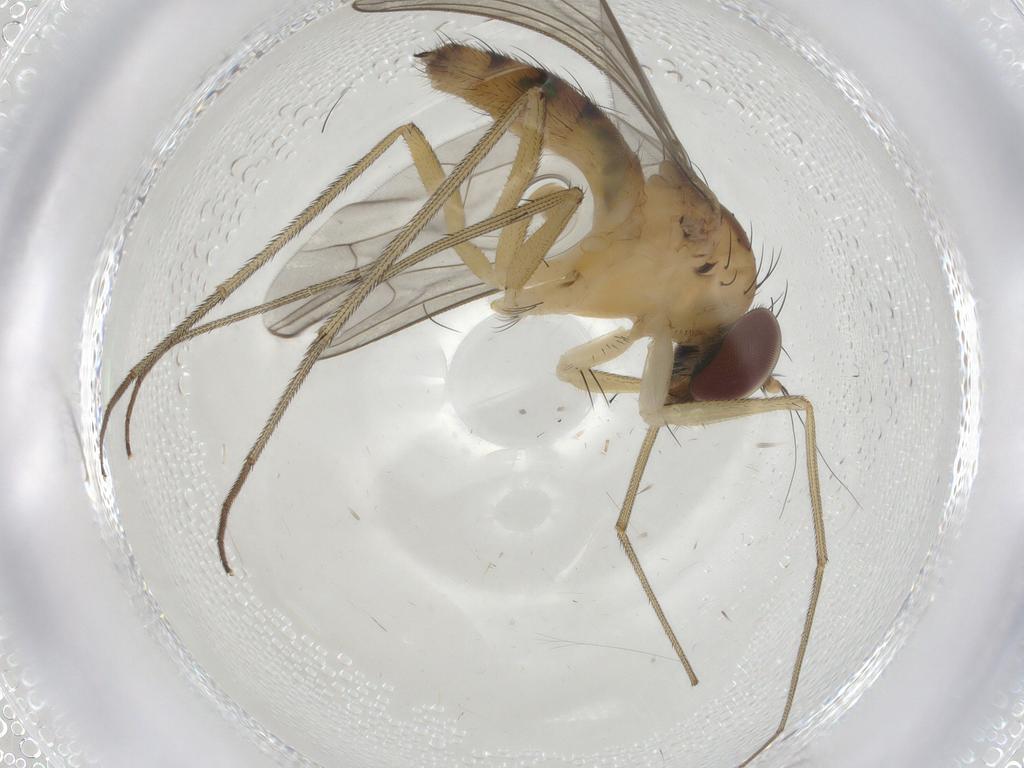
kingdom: Animalia
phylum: Arthropoda
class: Insecta
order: Diptera
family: Dolichopodidae
